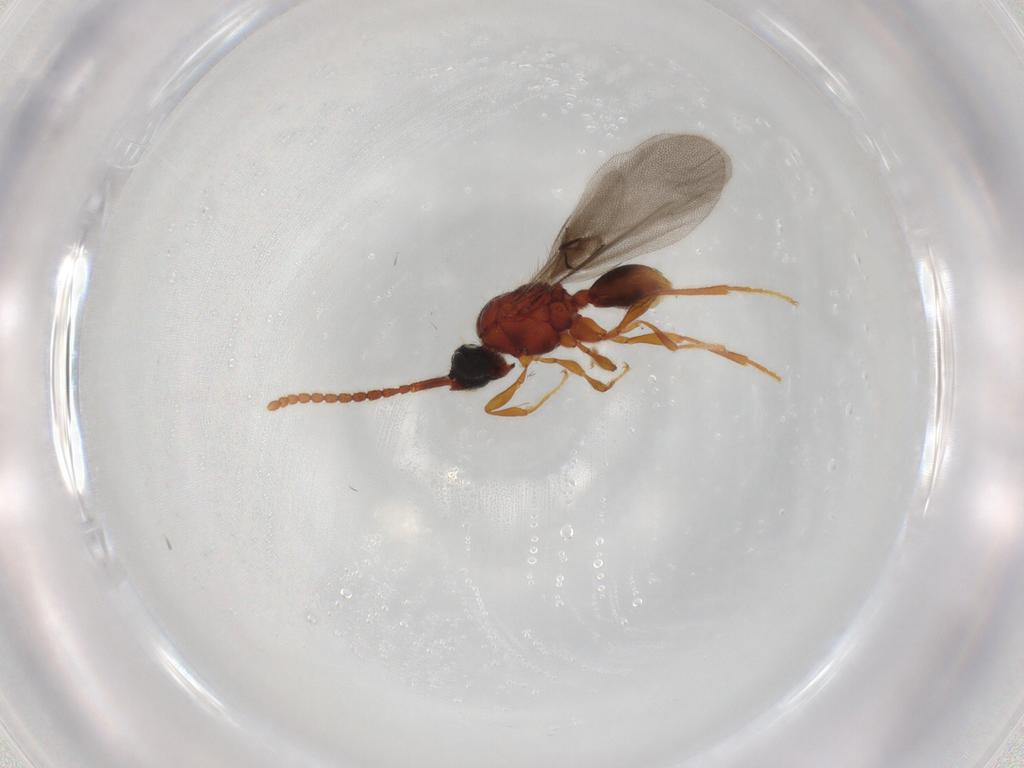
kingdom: Animalia
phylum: Arthropoda
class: Insecta
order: Hymenoptera
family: Diapriidae
